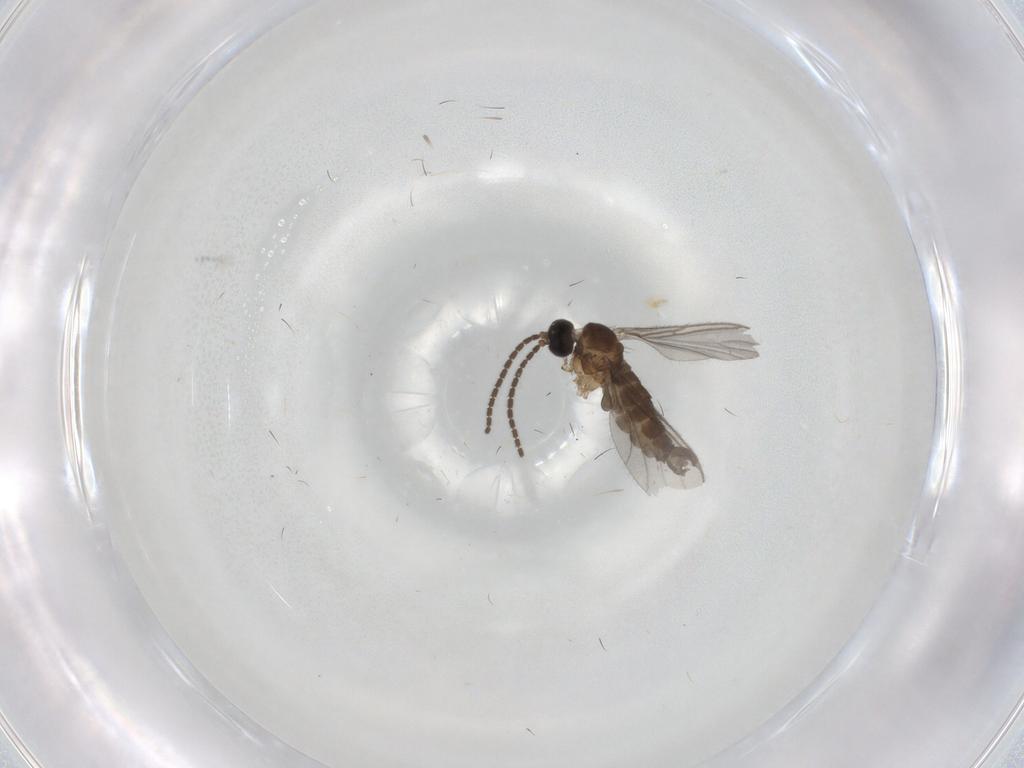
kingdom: Animalia
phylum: Arthropoda
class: Insecta
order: Diptera
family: Sciaridae
